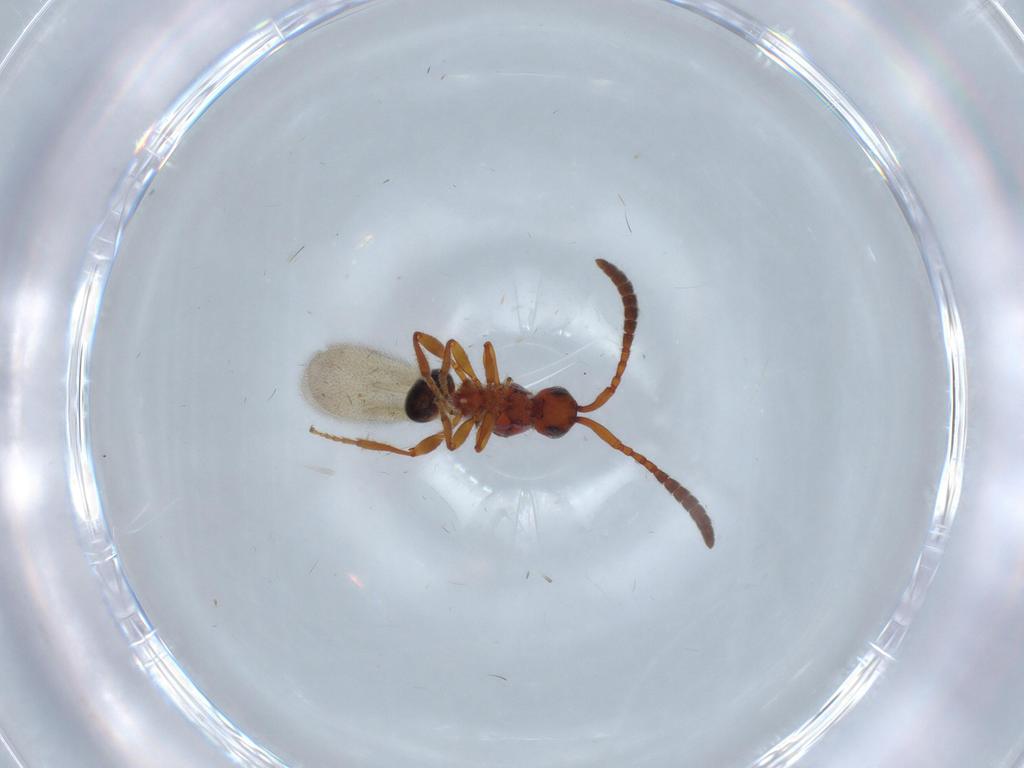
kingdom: Animalia
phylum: Arthropoda
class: Insecta
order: Hymenoptera
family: Diapriidae
